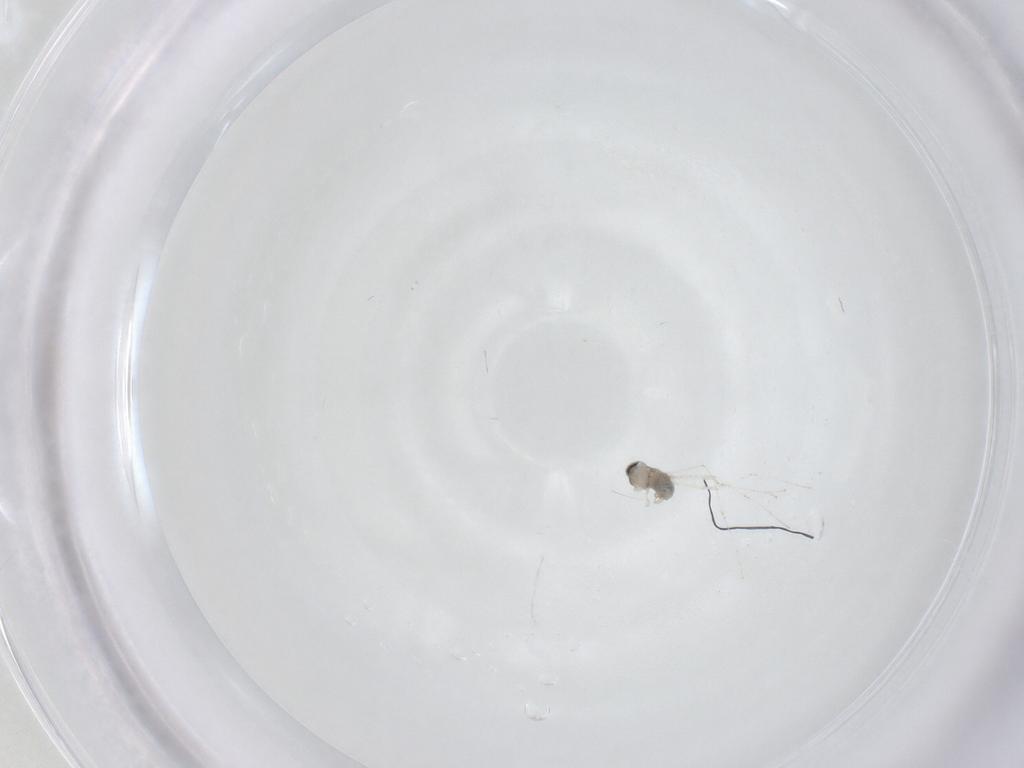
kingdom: Animalia
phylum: Arthropoda
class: Insecta
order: Diptera
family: Cecidomyiidae
